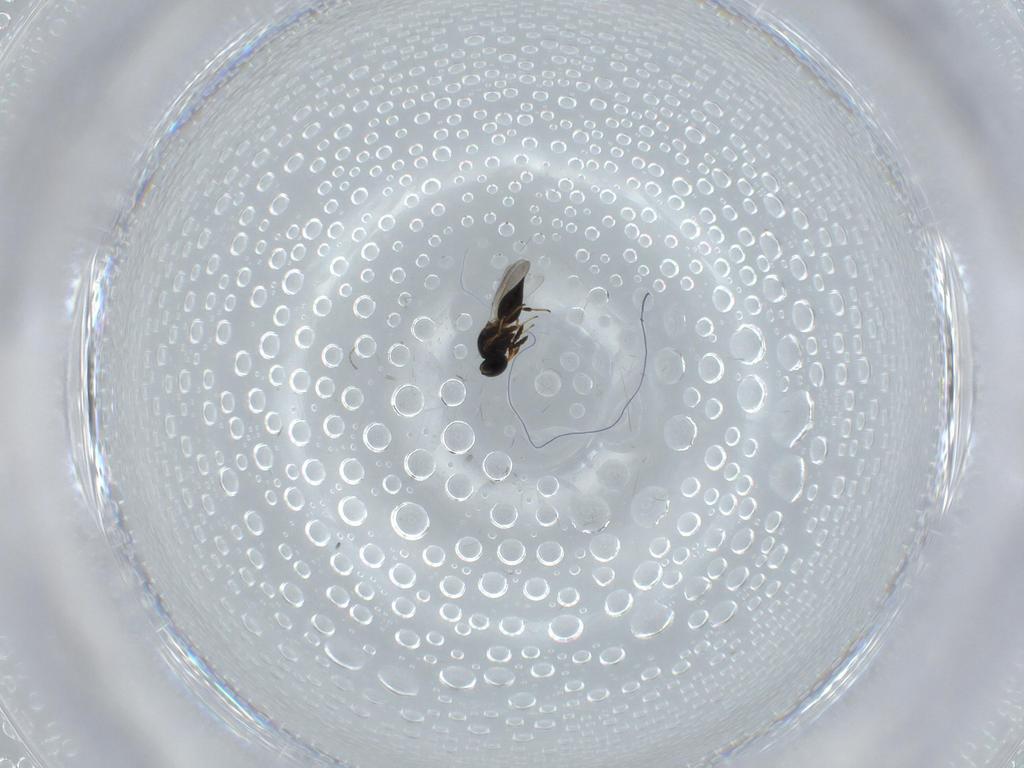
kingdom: Animalia
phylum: Arthropoda
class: Insecta
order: Hymenoptera
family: Platygastridae
